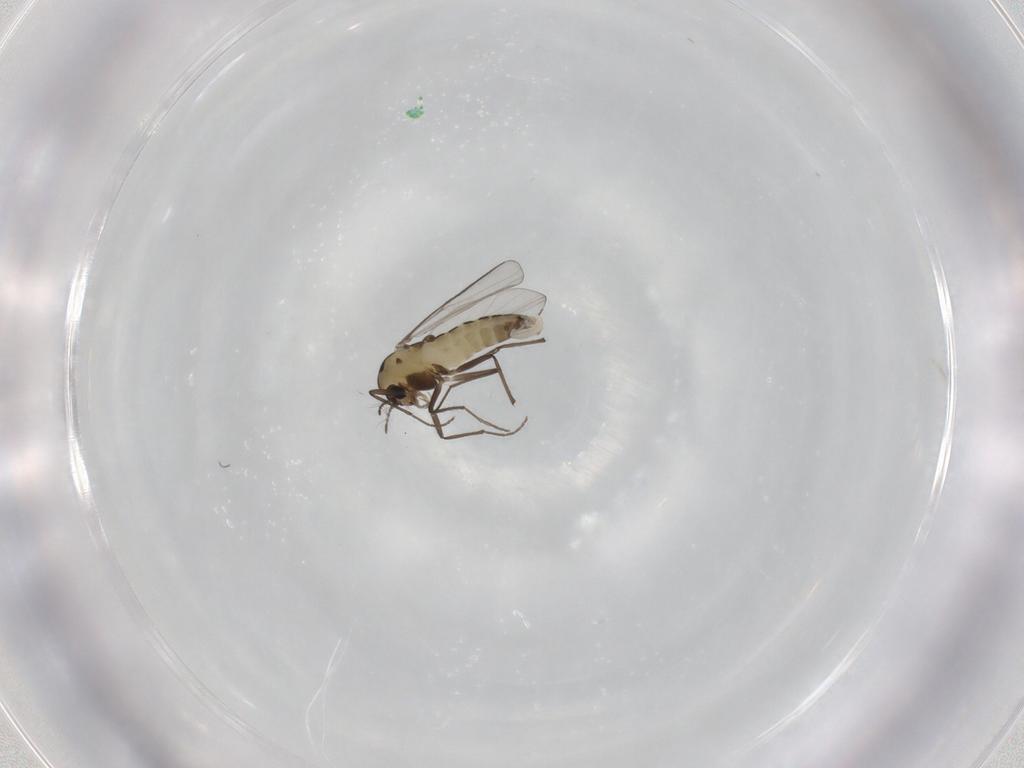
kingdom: Animalia
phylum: Arthropoda
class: Insecta
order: Diptera
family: Chironomidae
